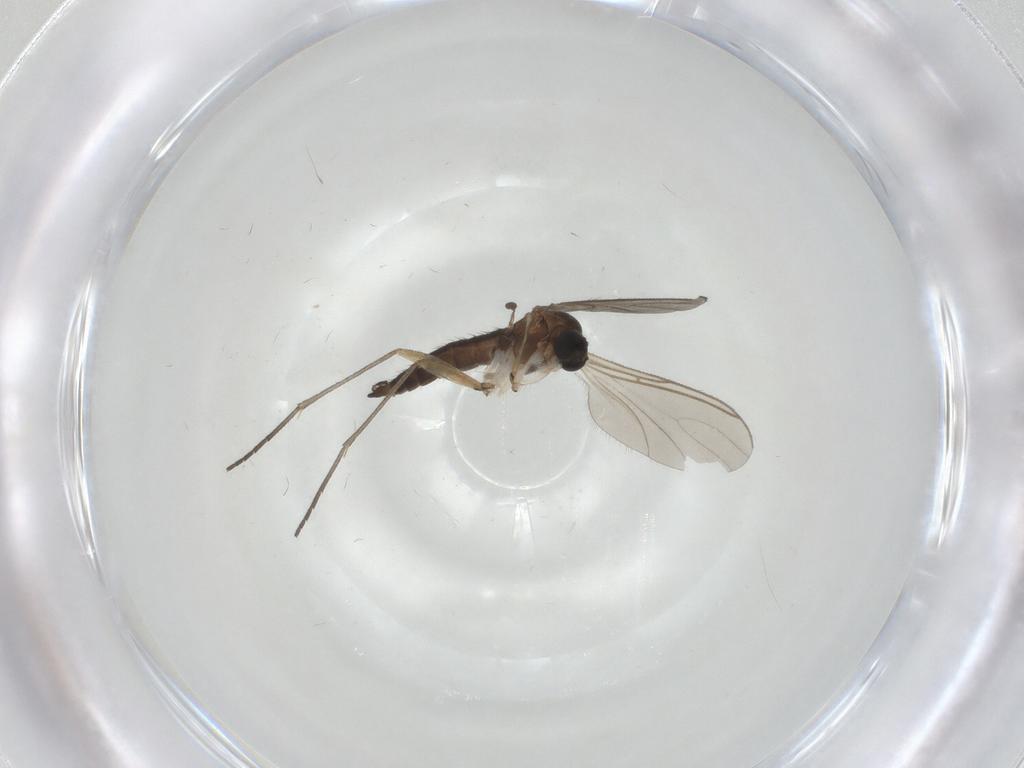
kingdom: Animalia
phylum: Arthropoda
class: Insecta
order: Diptera
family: Sciaridae
